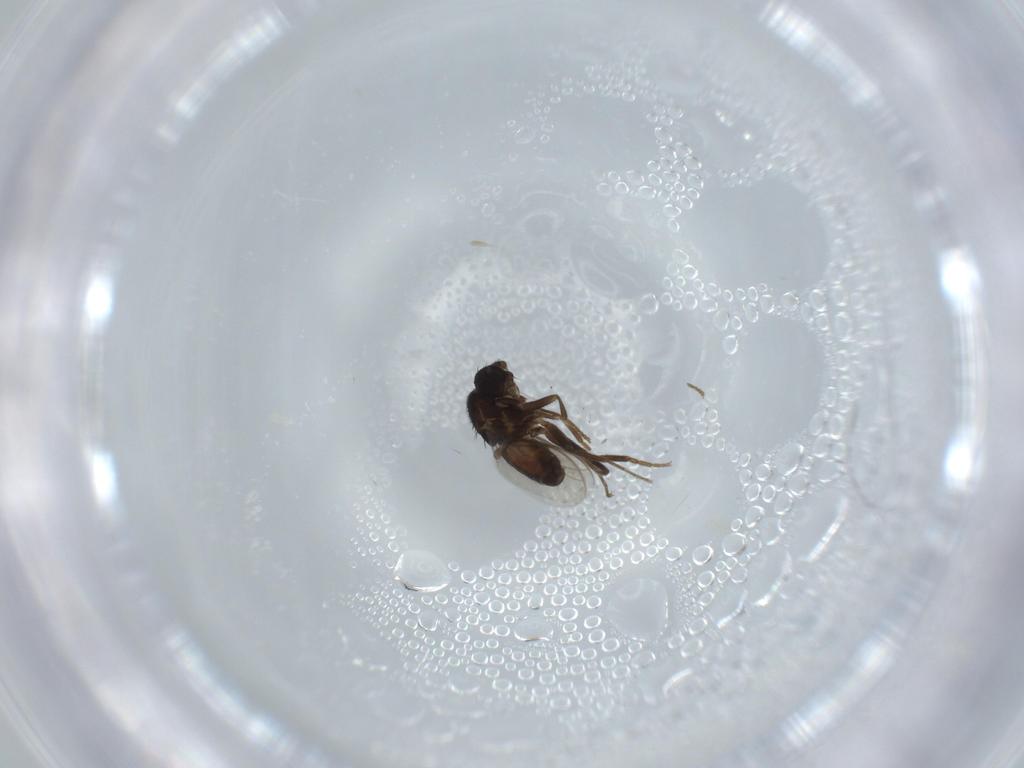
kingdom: Animalia
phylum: Arthropoda
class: Insecta
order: Diptera
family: Sphaeroceridae
